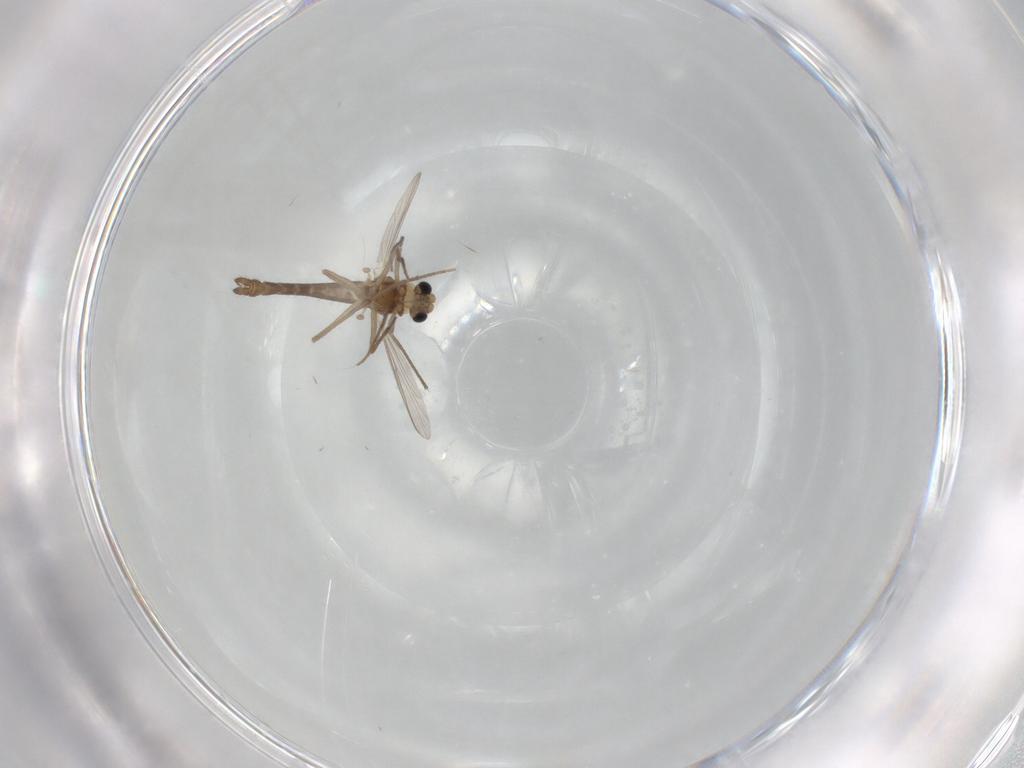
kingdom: Animalia
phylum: Arthropoda
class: Insecta
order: Diptera
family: Chironomidae
